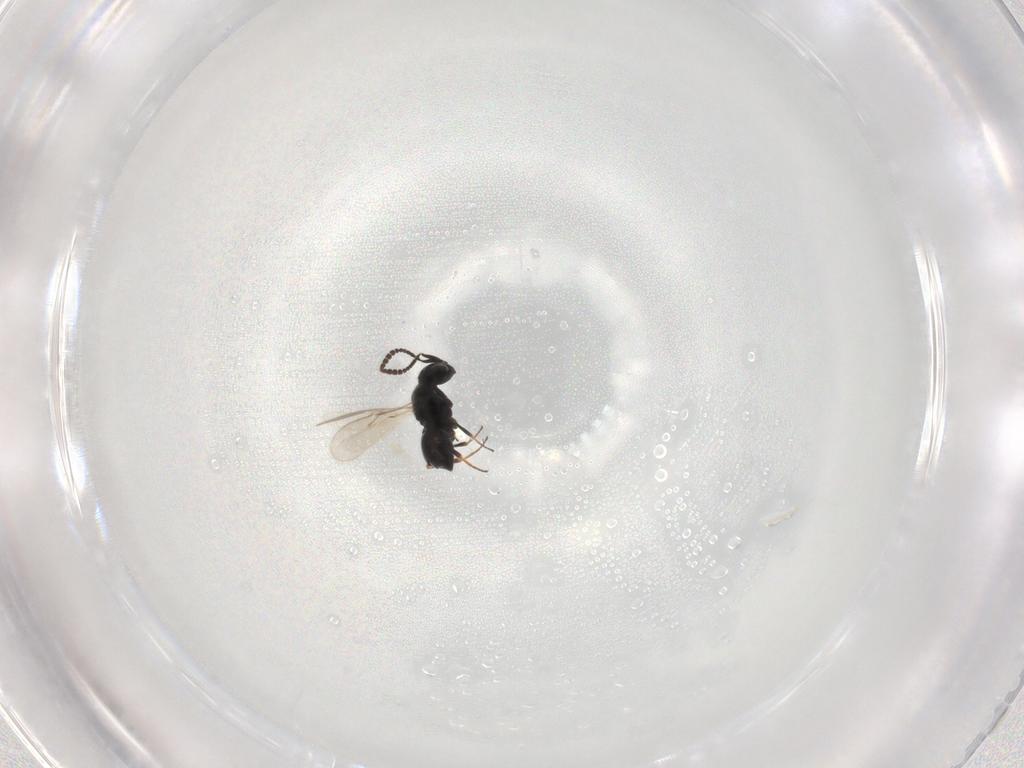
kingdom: Animalia
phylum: Arthropoda
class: Insecta
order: Hymenoptera
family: Scelionidae
